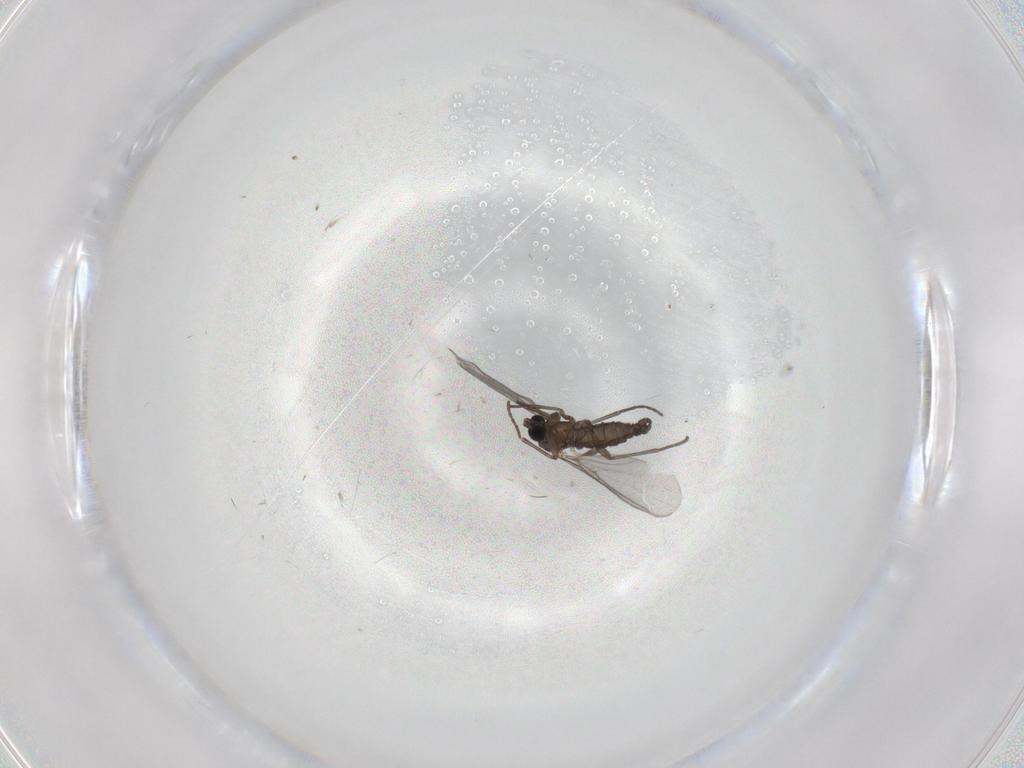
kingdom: Animalia
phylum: Arthropoda
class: Insecta
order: Diptera
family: Phoridae
